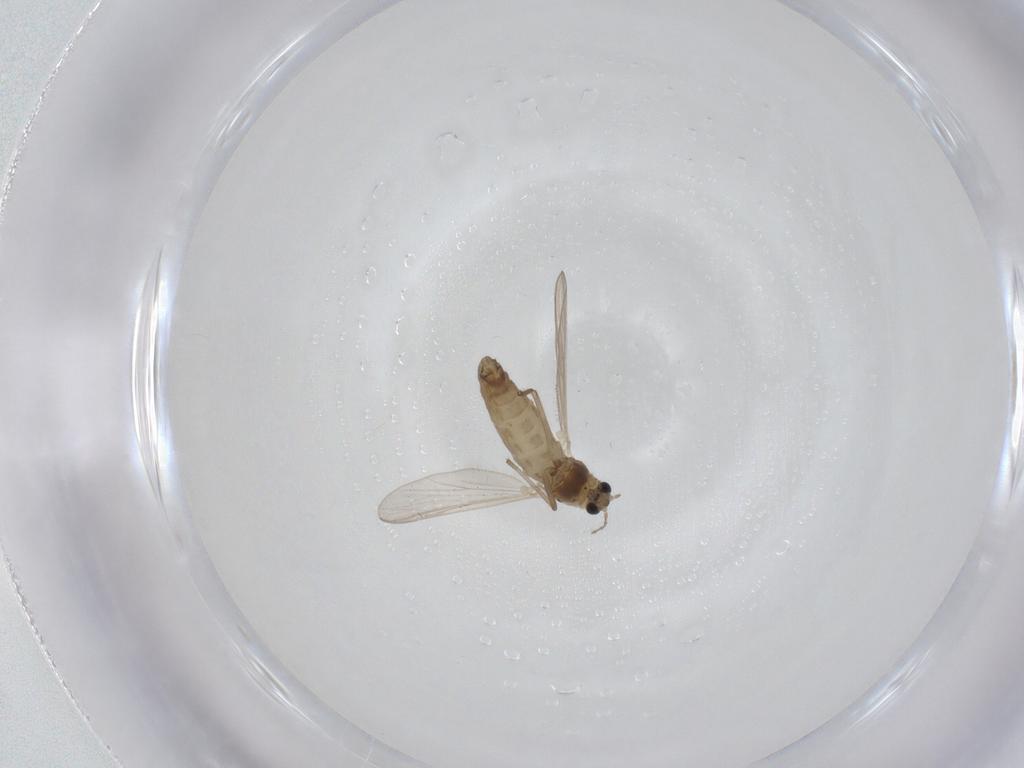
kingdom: Animalia
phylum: Arthropoda
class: Insecta
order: Diptera
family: Chironomidae
